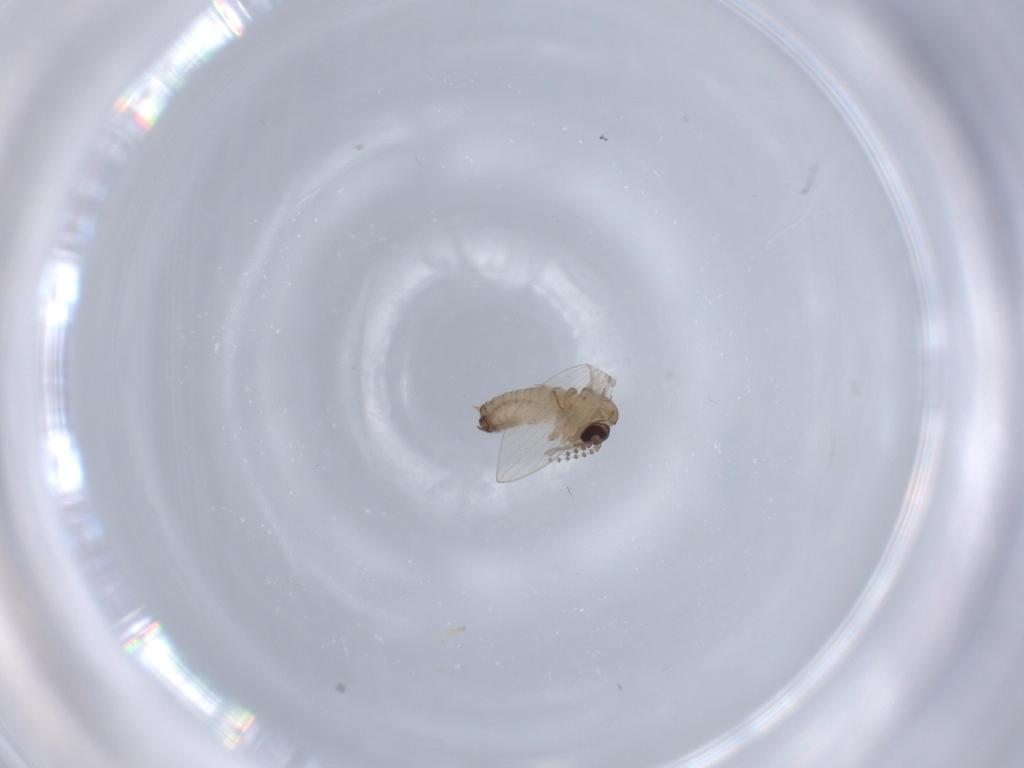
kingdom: Animalia
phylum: Arthropoda
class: Insecta
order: Diptera
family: Psychodidae
